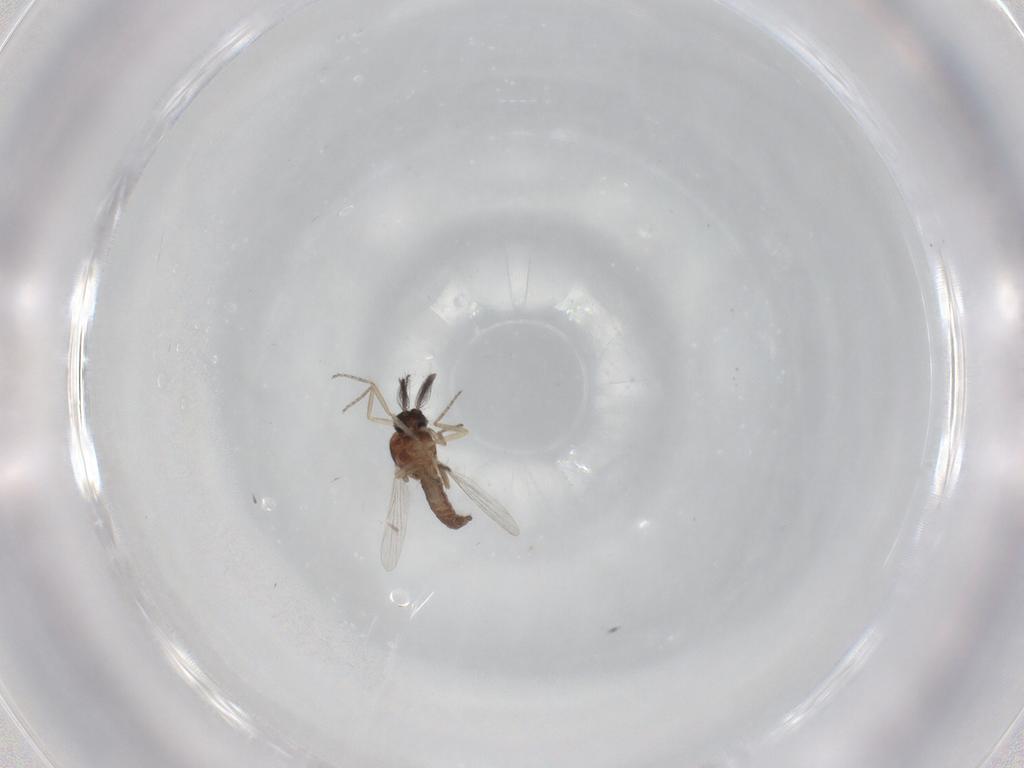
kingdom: Animalia
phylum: Arthropoda
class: Insecta
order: Diptera
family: Ceratopogonidae
